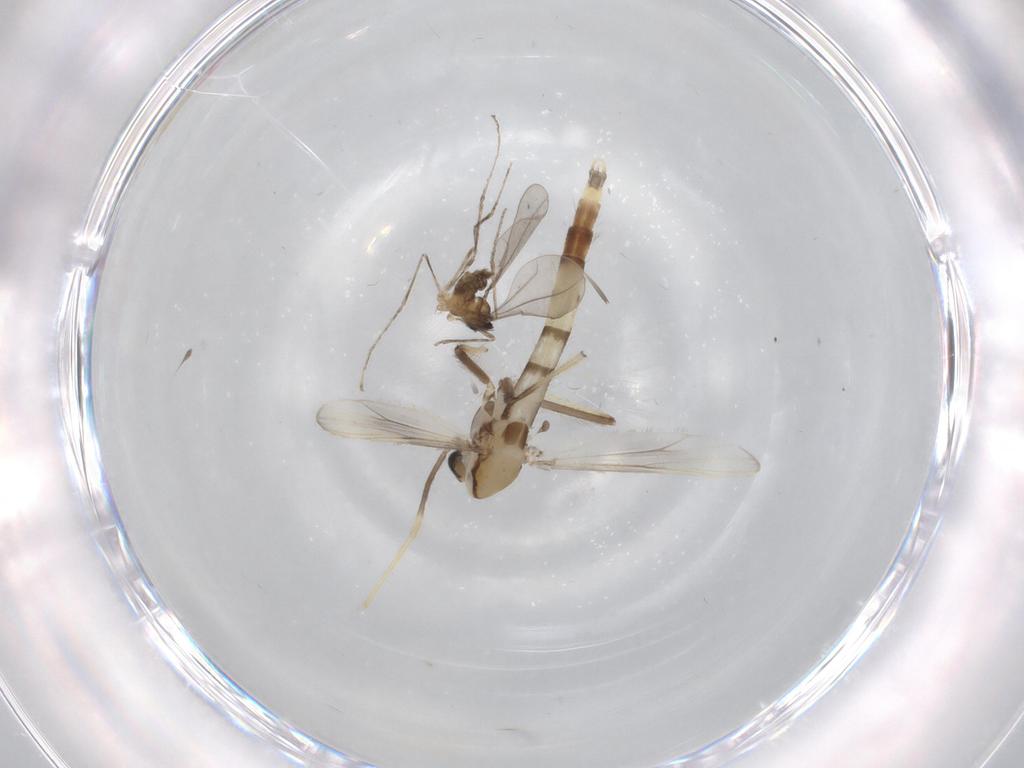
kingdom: Animalia
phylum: Arthropoda
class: Insecta
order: Diptera
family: Chironomidae
